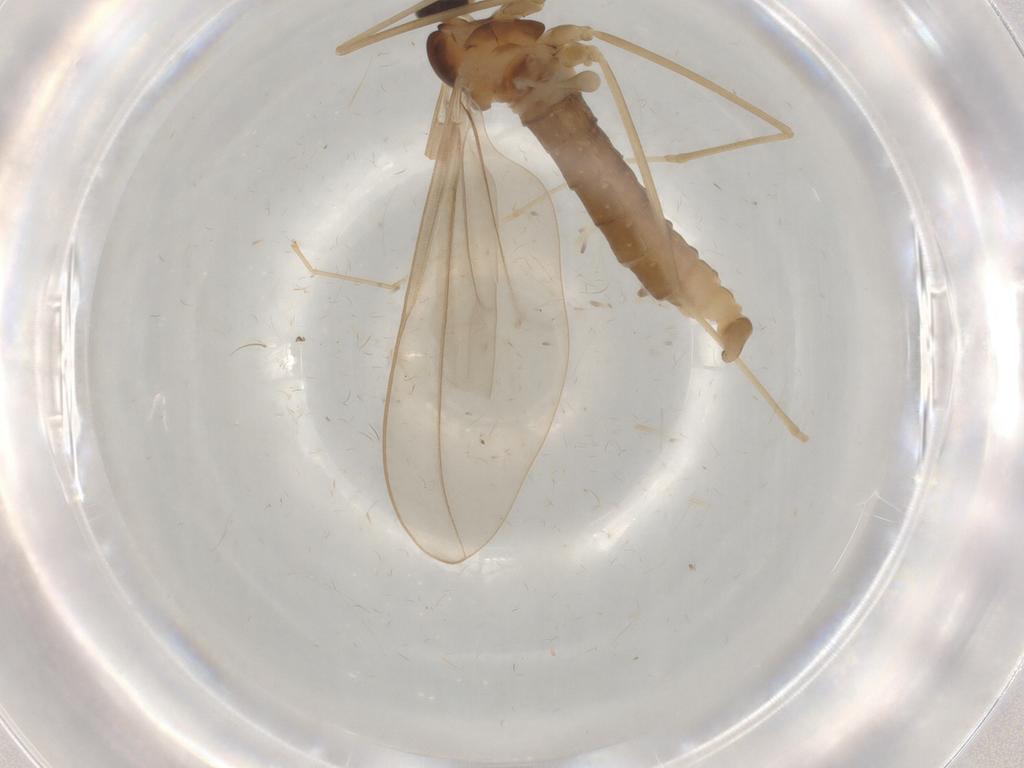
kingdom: Animalia
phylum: Arthropoda
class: Insecta
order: Diptera
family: Cecidomyiidae
